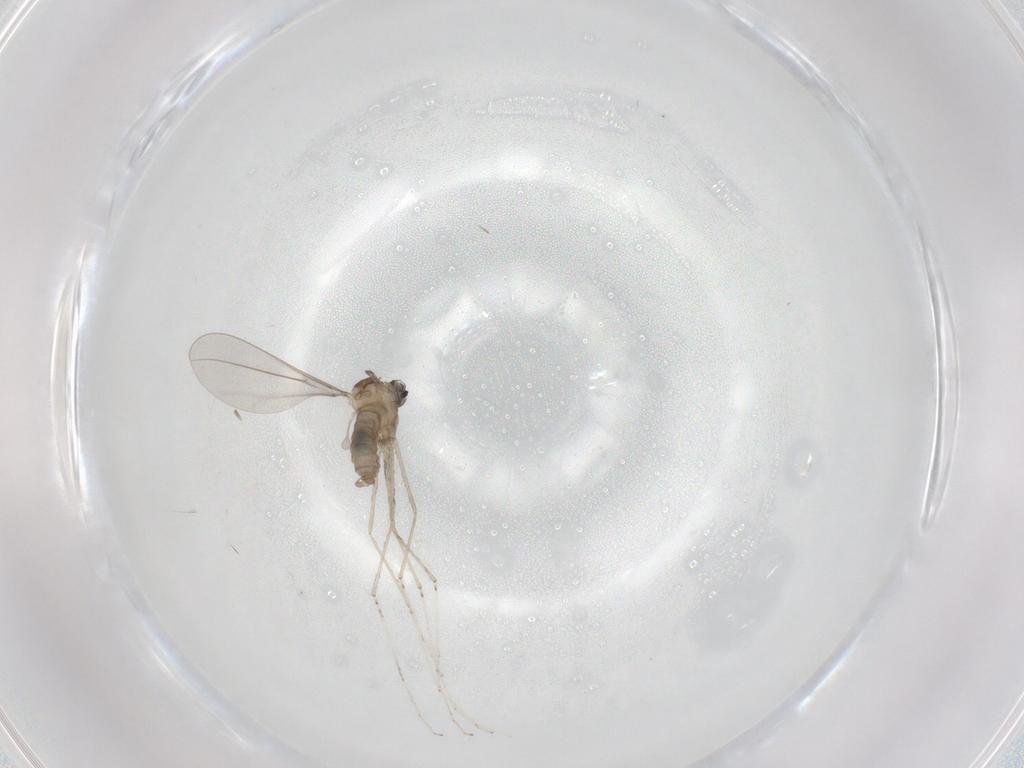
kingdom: Animalia
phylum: Arthropoda
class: Insecta
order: Diptera
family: Cecidomyiidae
